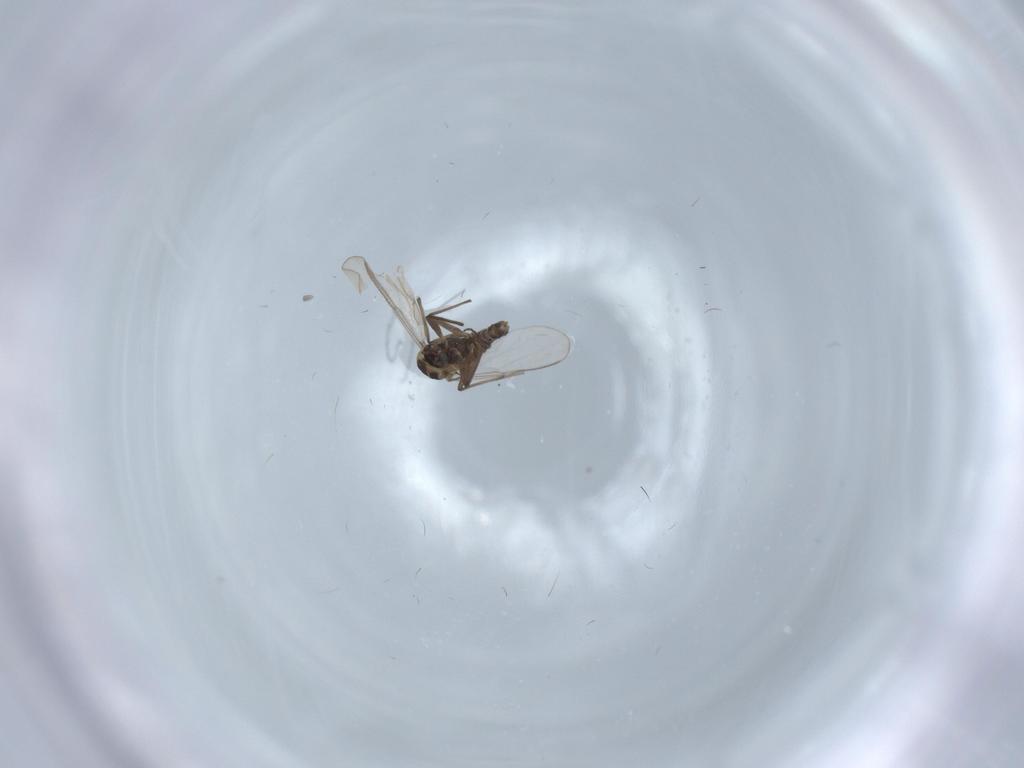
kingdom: Animalia
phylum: Arthropoda
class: Insecta
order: Diptera
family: Chironomidae
